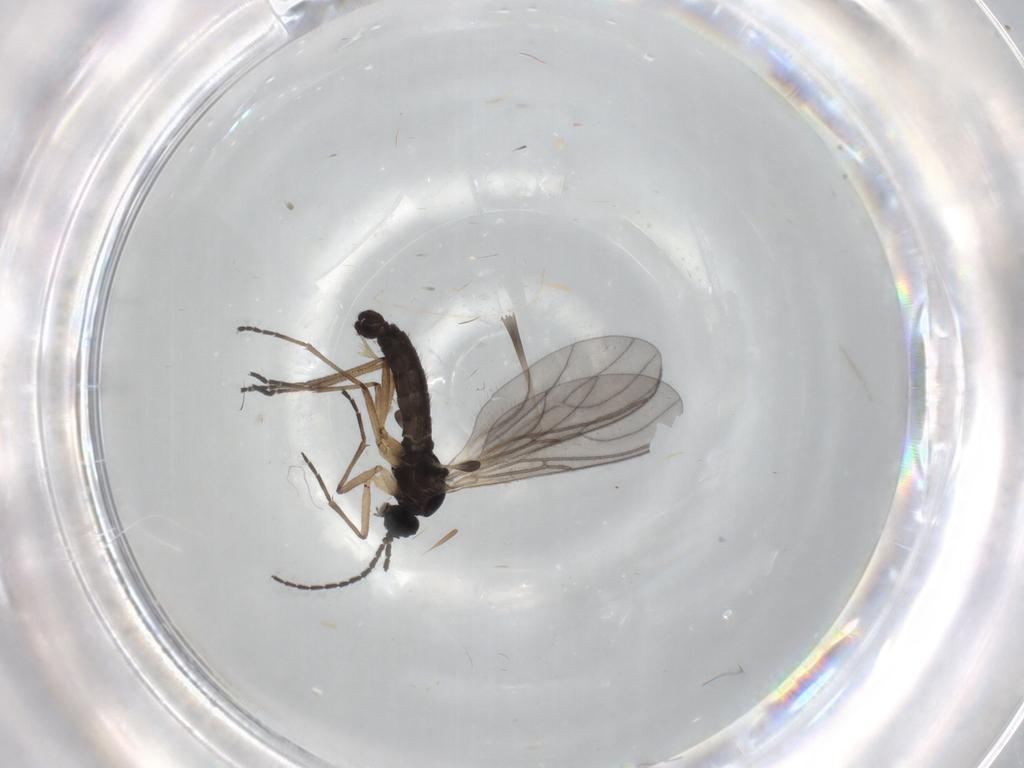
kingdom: Animalia
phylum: Arthropoda
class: Insecta
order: Diptera
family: Sciaridae
